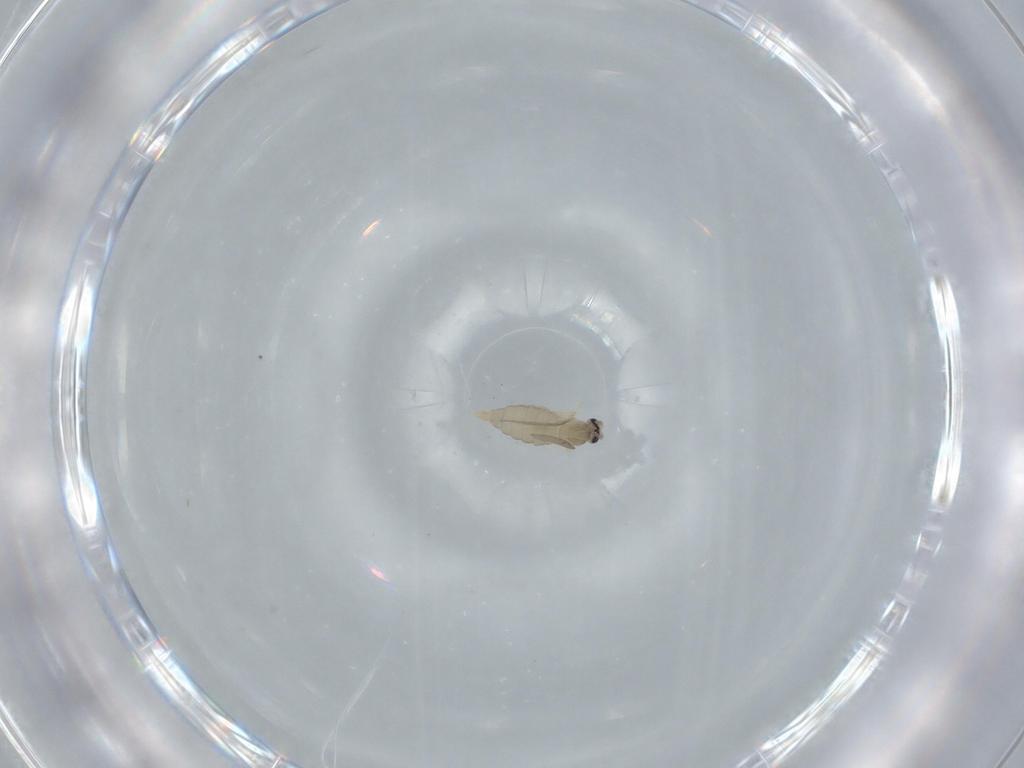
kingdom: Animalia
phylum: Arthropoda
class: Insecta
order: Diptera
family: Cecidomyiidae
